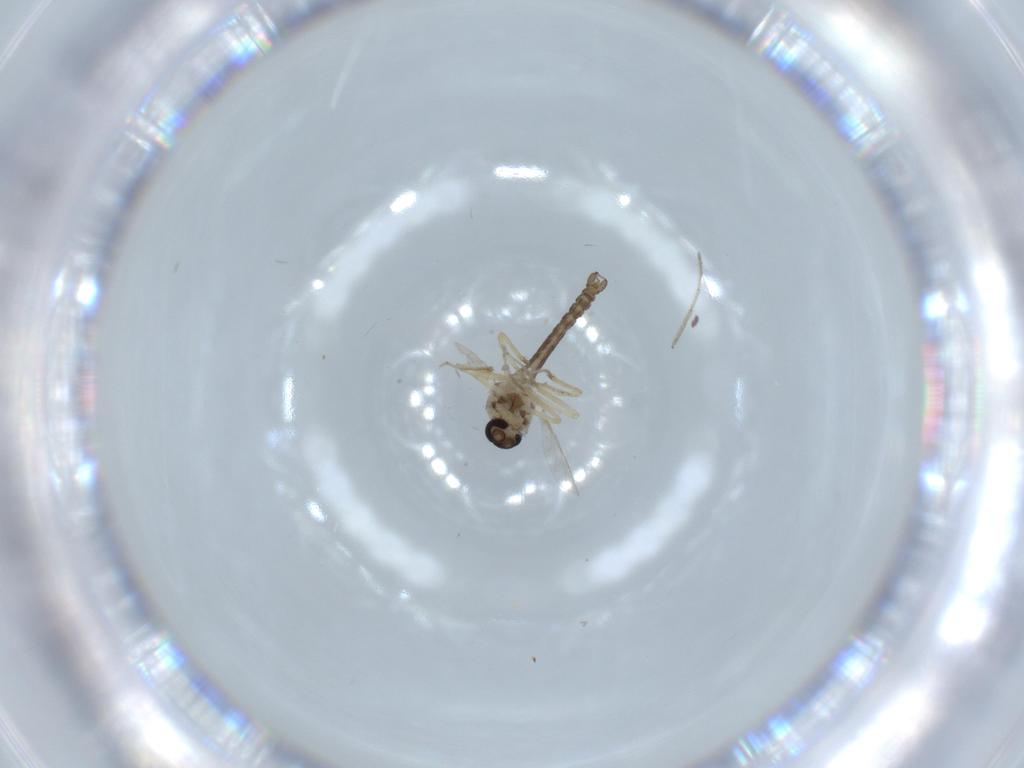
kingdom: Animalia
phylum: Arthropoda
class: Insecta
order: Diptera
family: Ceratopogonidae
